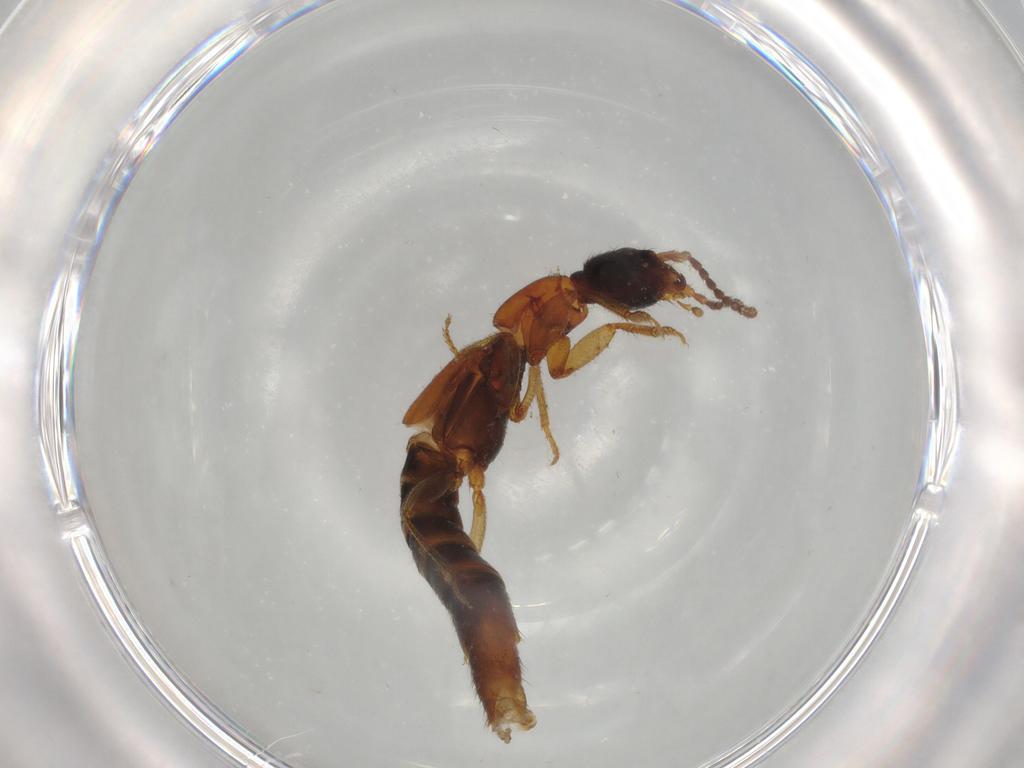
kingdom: Animalia
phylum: Arthropoda
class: Insecta
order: Coleoptera
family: Staphylinidae
